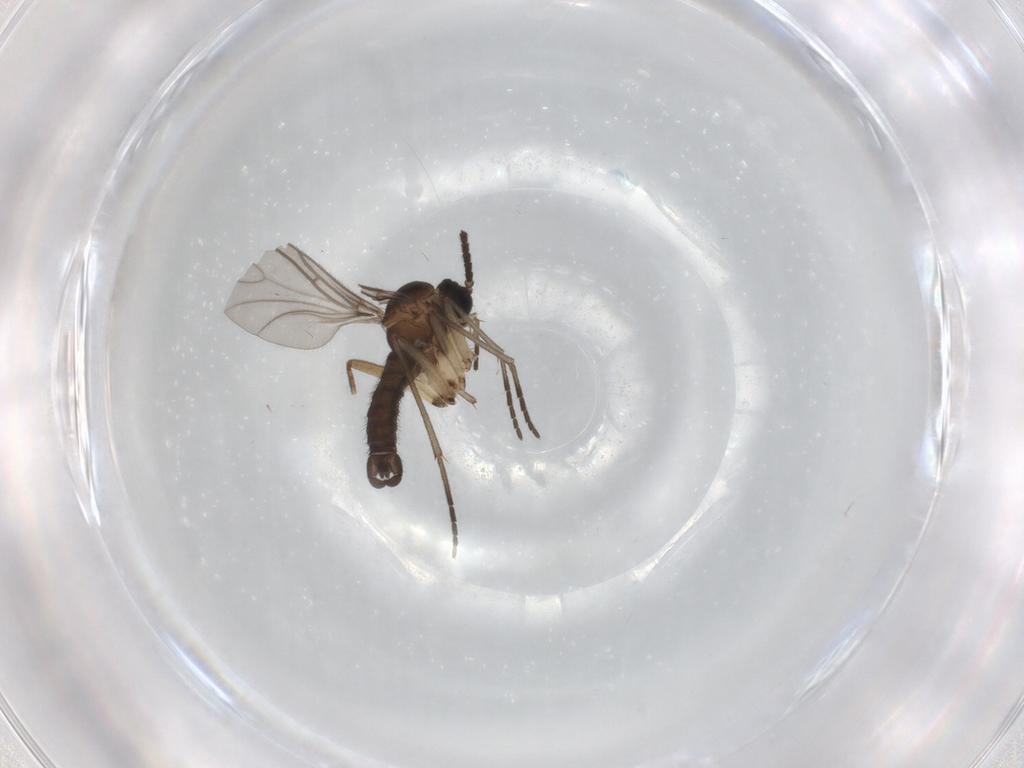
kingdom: Animalia
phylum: Arthropoda
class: Insecta
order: Diptera
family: Sciaridae
